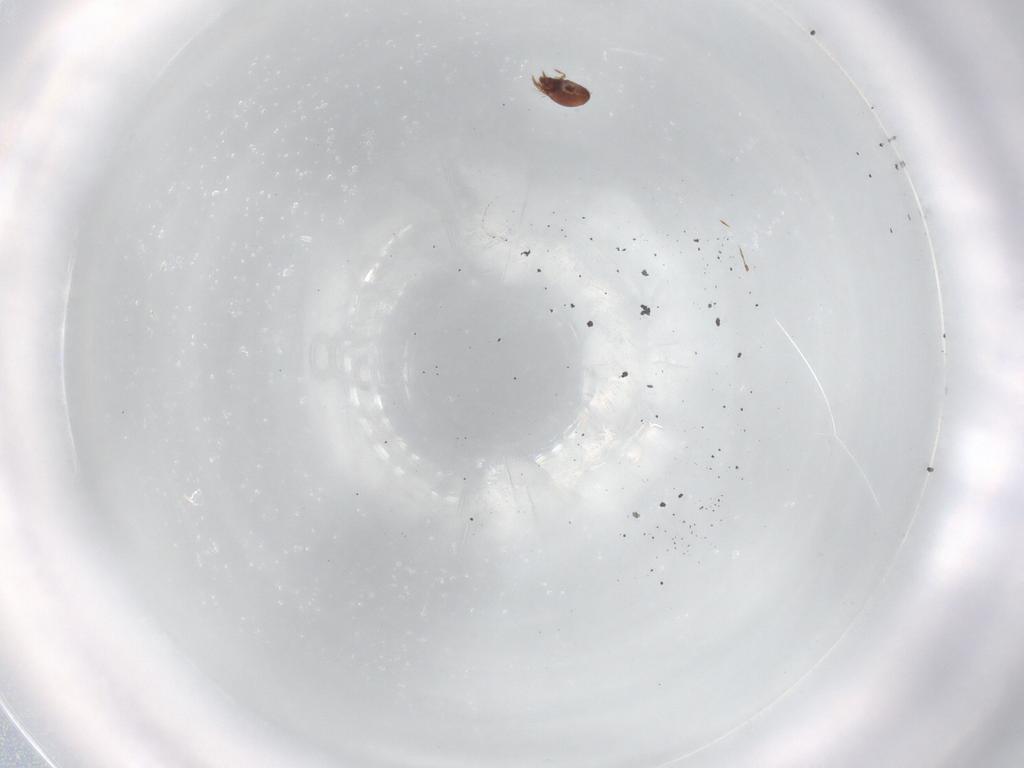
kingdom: Animalia
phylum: Arthropoda
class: Arachnida
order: Sarcoptiformes
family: Ceratozetidae
